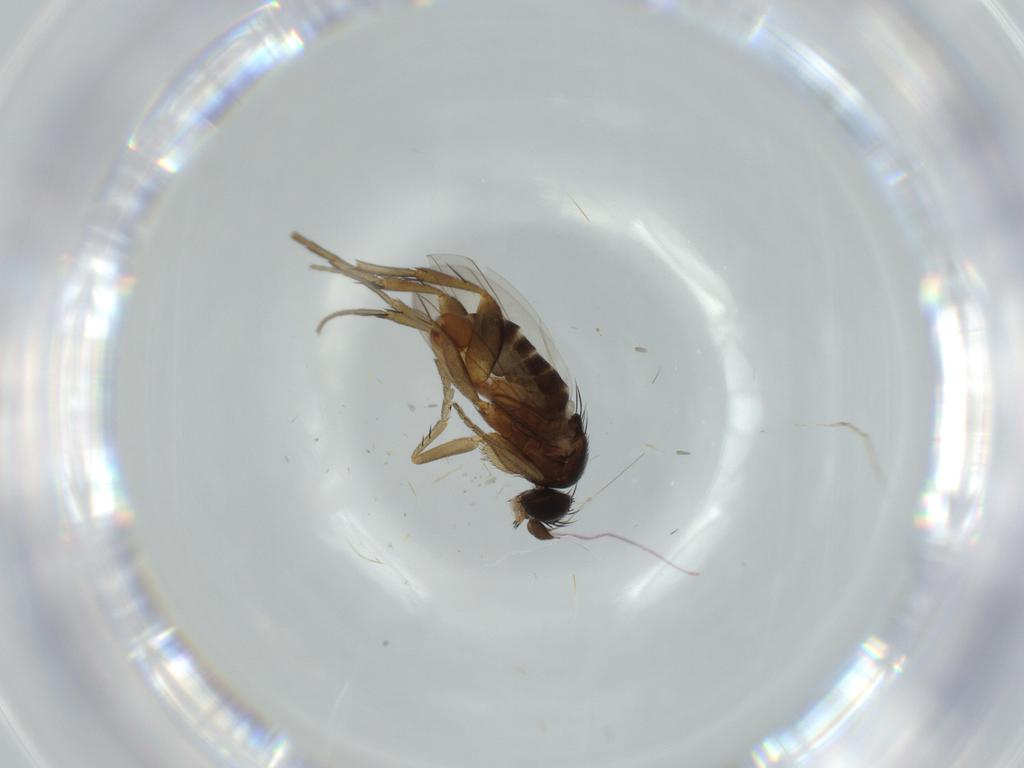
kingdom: Animalia
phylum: Arthropoda
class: Insecta
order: Diptera
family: Phoridae
